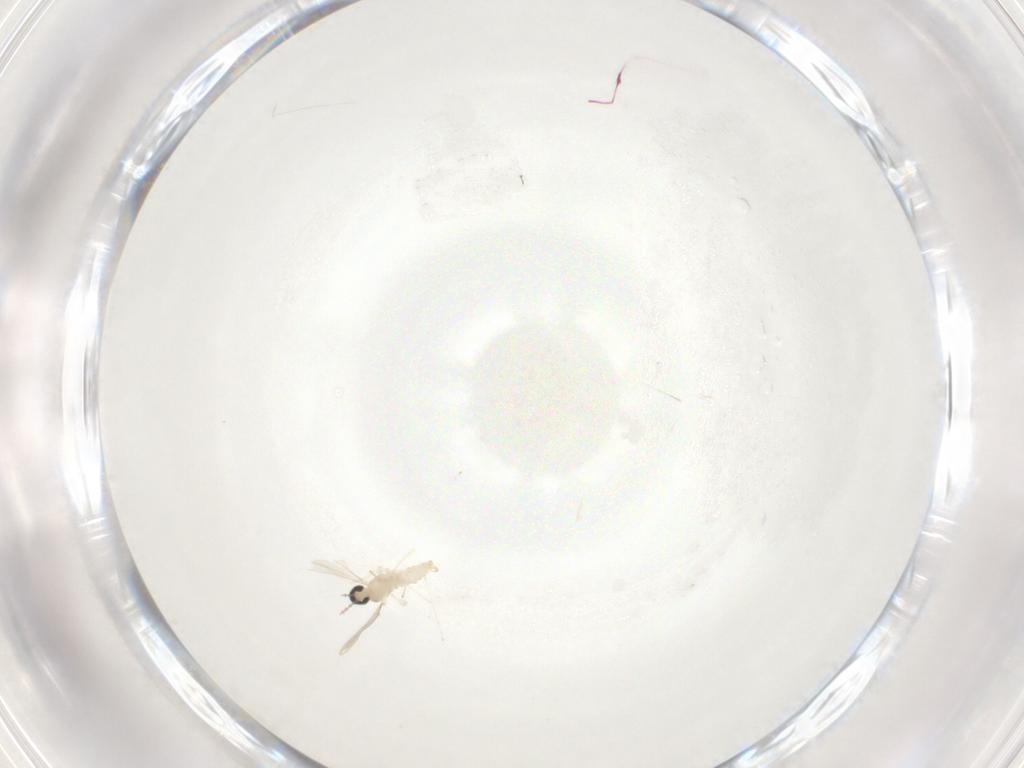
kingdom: Animalia
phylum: Arthropoda
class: Insecta
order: Diptera
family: Cecidomyiidae
